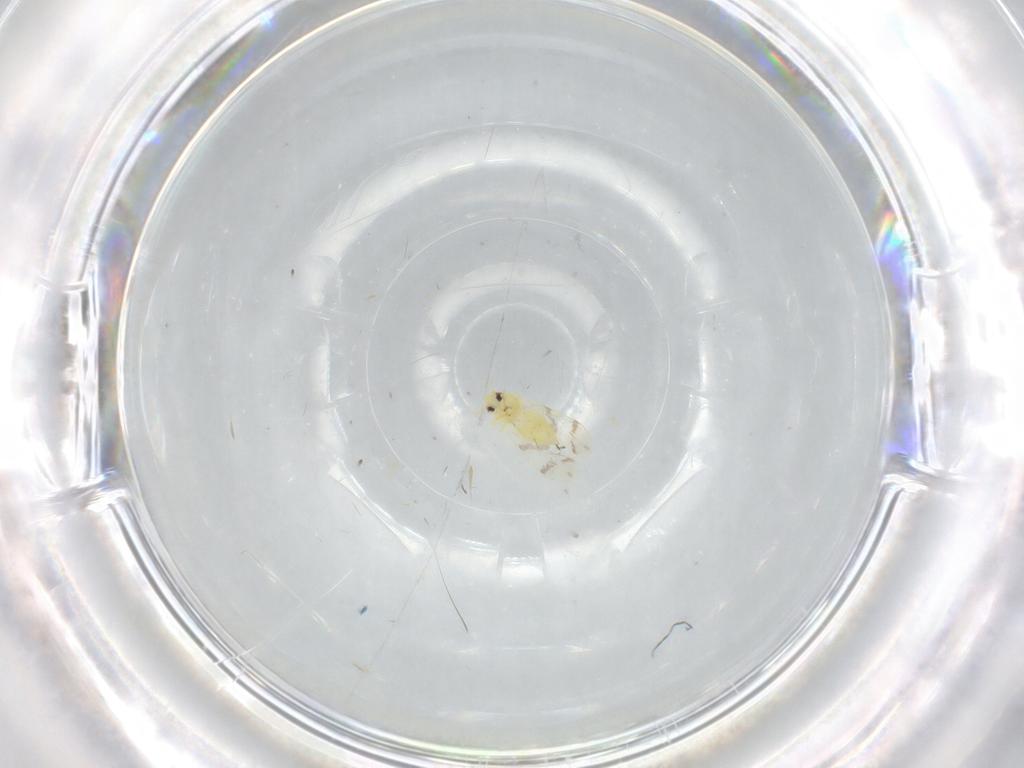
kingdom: Animalia
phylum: Arthropoda
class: Insecta
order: Hemiptera
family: Aleyrodidae
